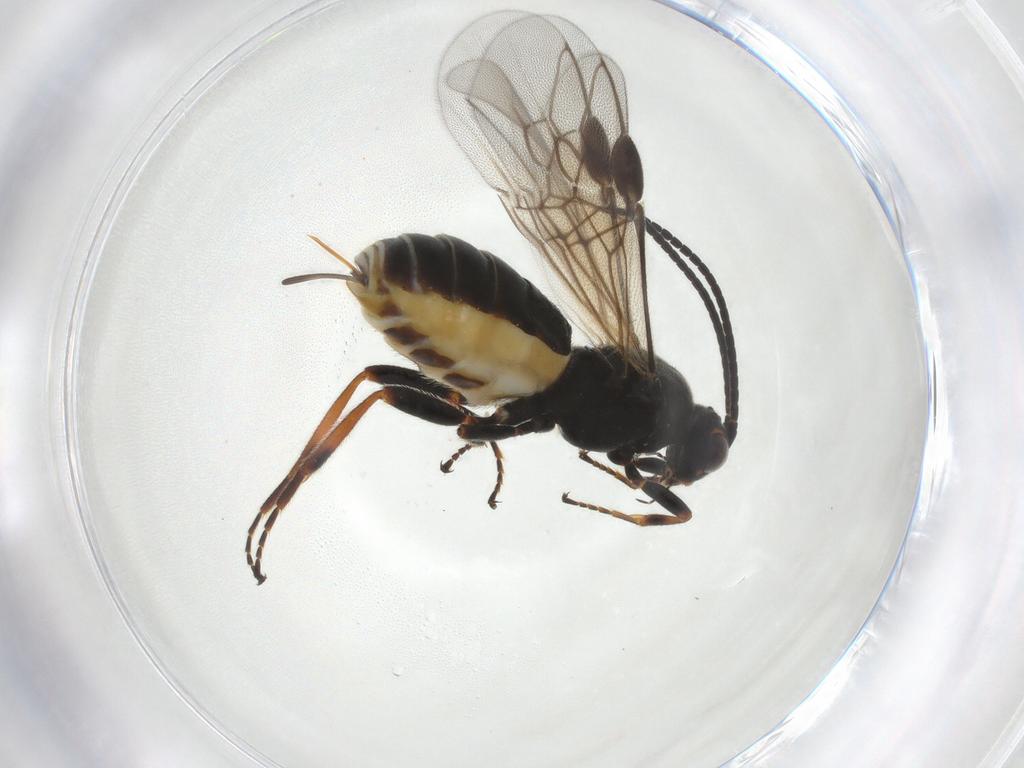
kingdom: Animalia
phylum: Arthropoda
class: Insecta
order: Hymenoptera
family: Braconidae
